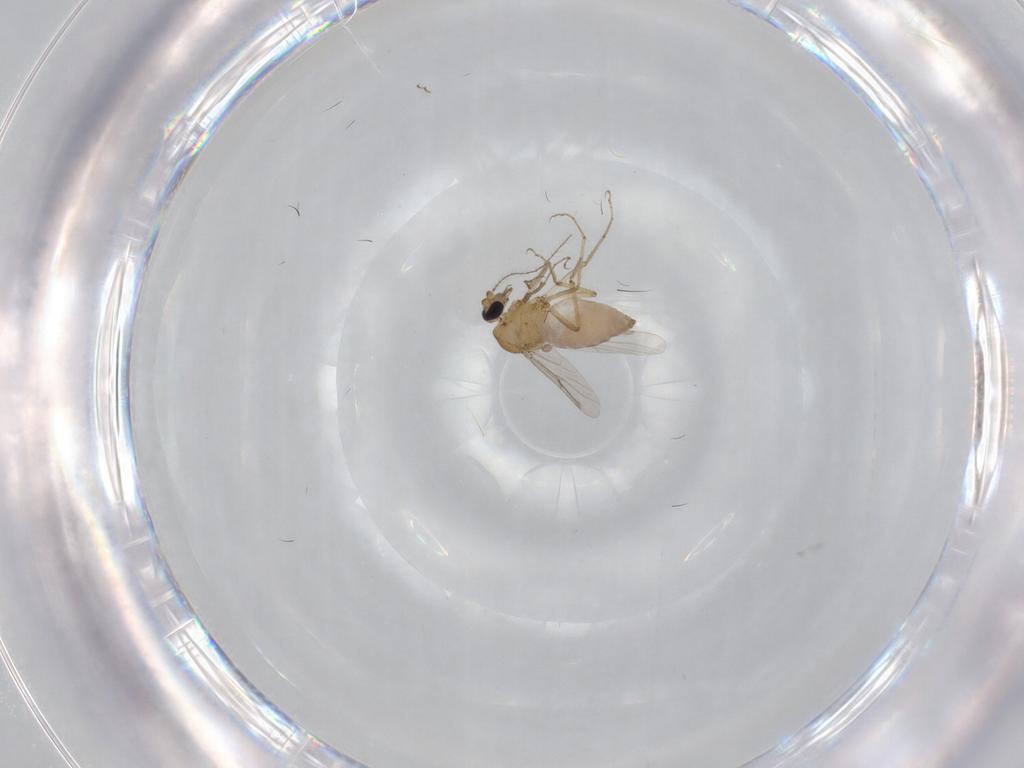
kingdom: Animalia
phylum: Arthropoda
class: Insecta
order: Diptera
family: Ceratopogonidae
